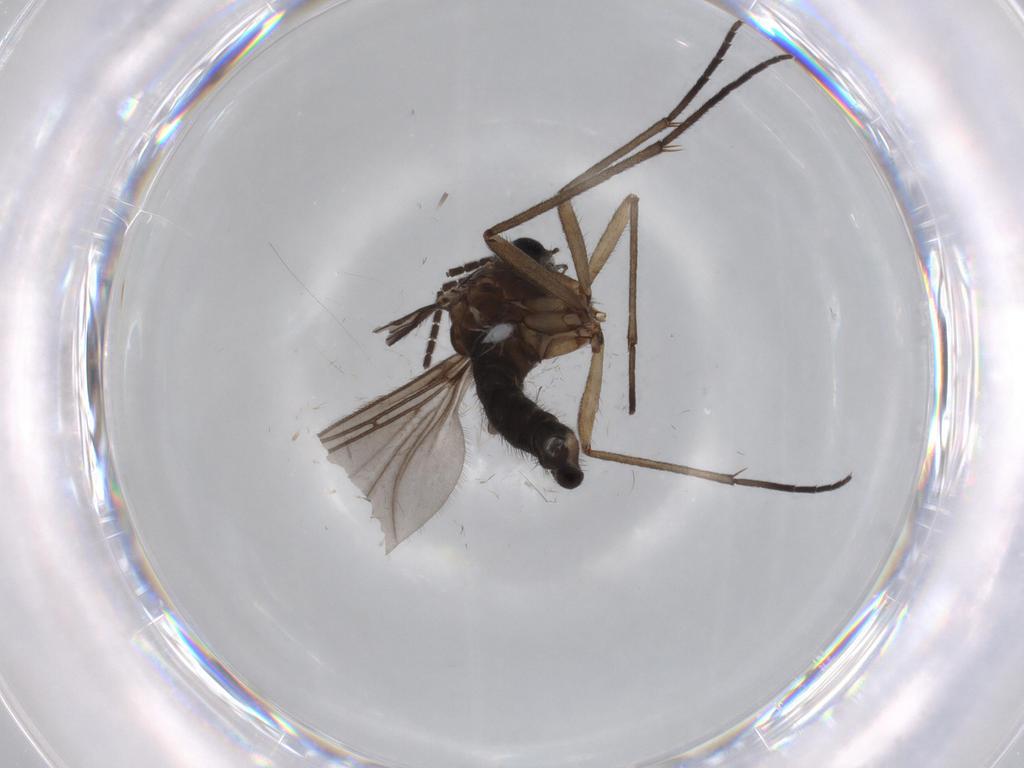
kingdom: Animalia
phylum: Arthropoda
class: Insecta
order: Diptera
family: Sciaridae
